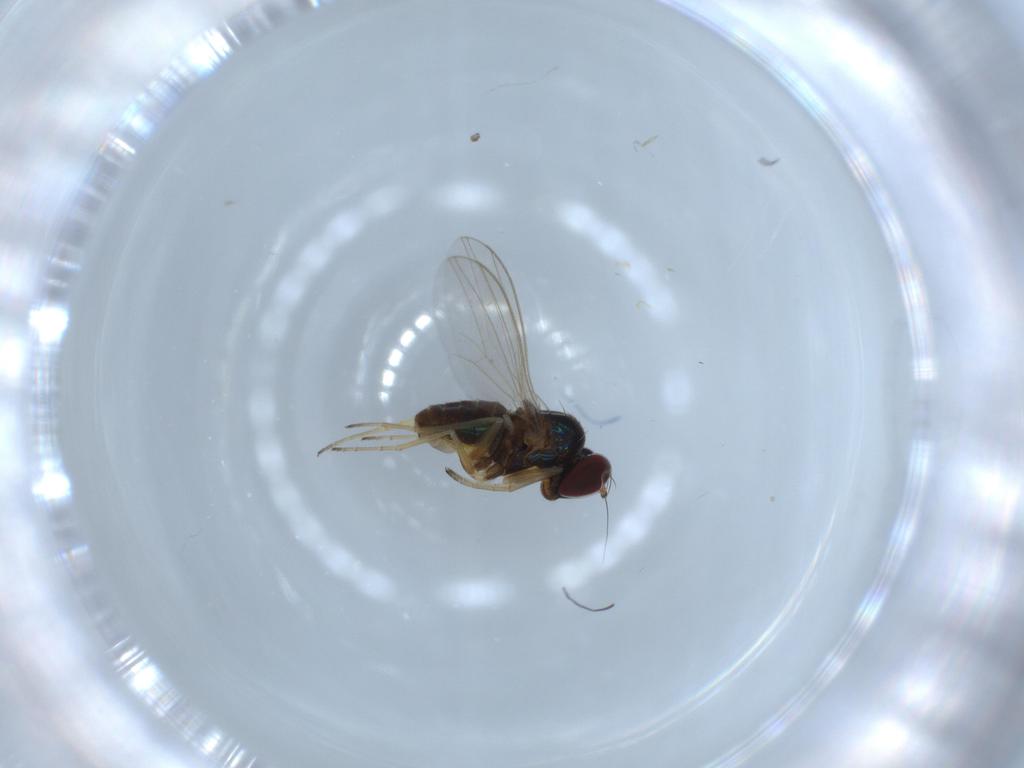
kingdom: Animalia
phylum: Arthropoda
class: Insecta
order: Diptera
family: Dolichopodidae
